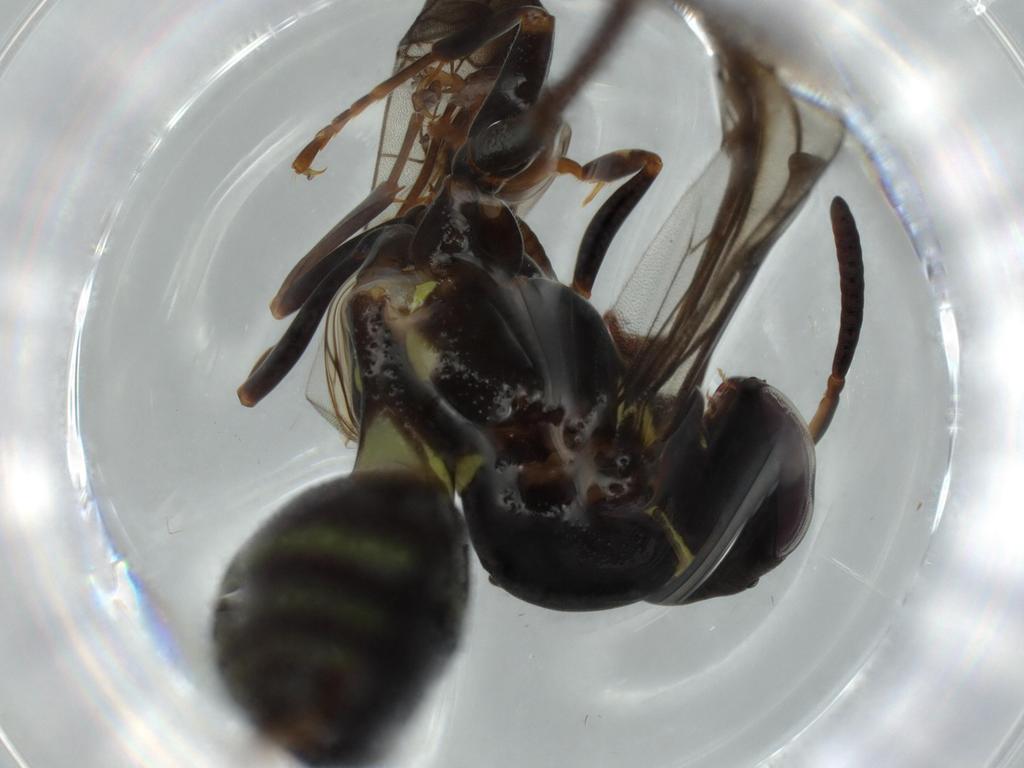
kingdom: Animalia
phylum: Arthropoda
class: Insecta
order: Hymenoptera
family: Vespidae
